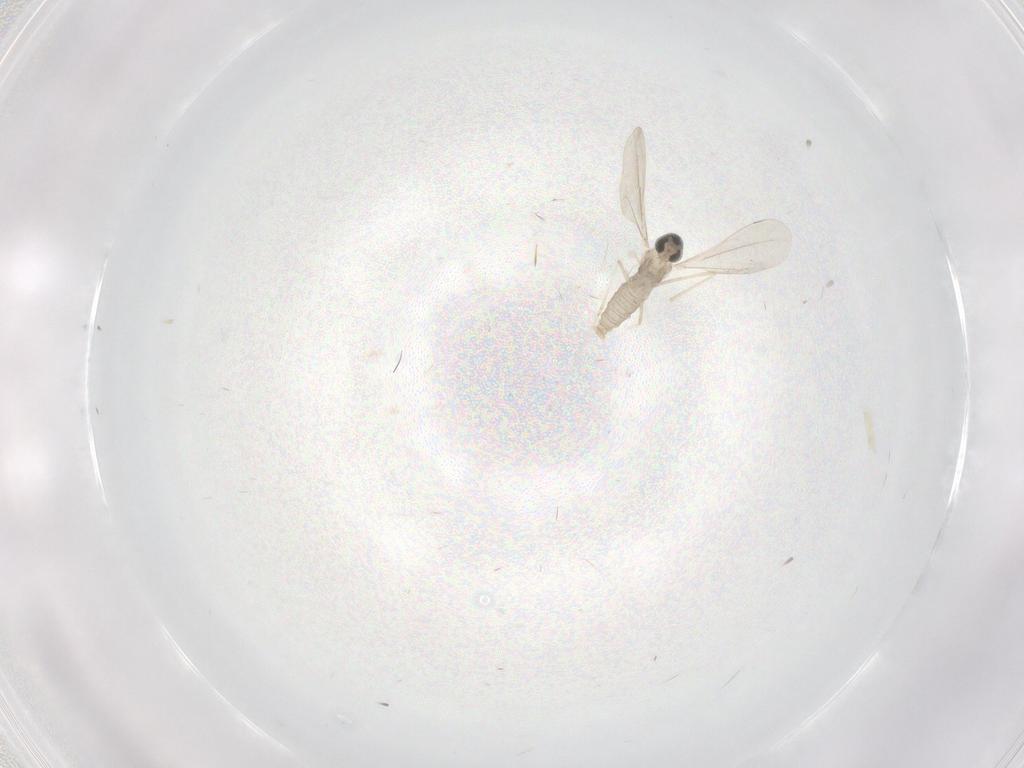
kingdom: Animalia
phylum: Arthropoda
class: Insecta
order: Diptera
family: Cecidomyiidae
